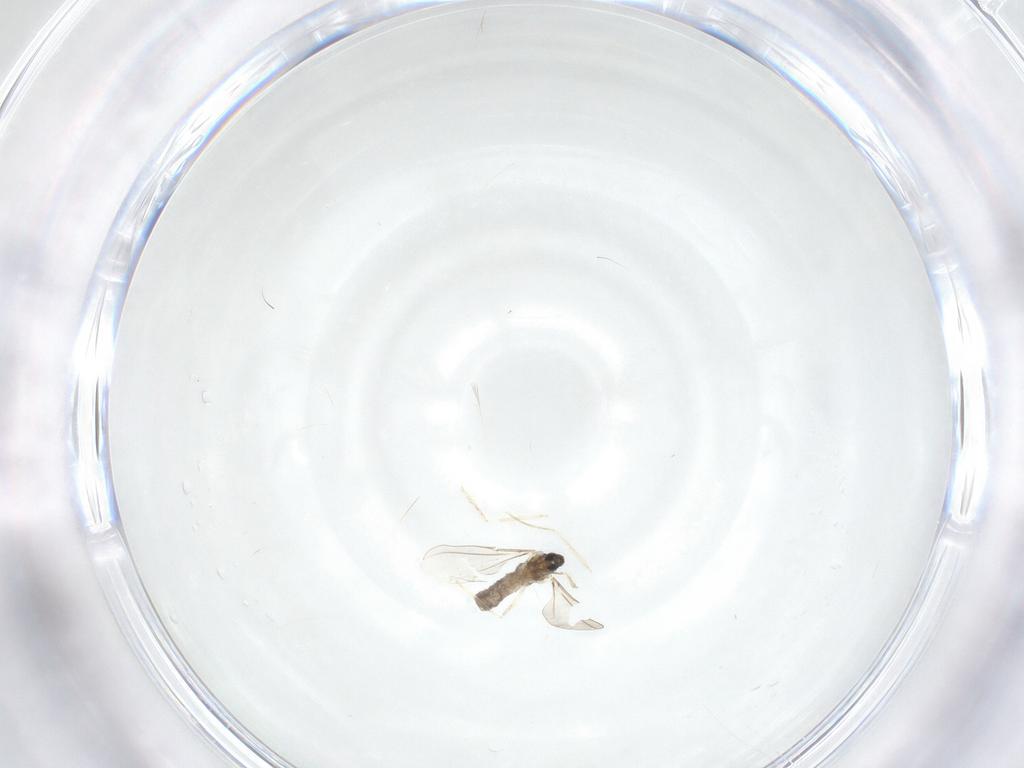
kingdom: Animalia
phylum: Arthropoda
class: Insecta
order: Diptera
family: Cecidomyiidae
